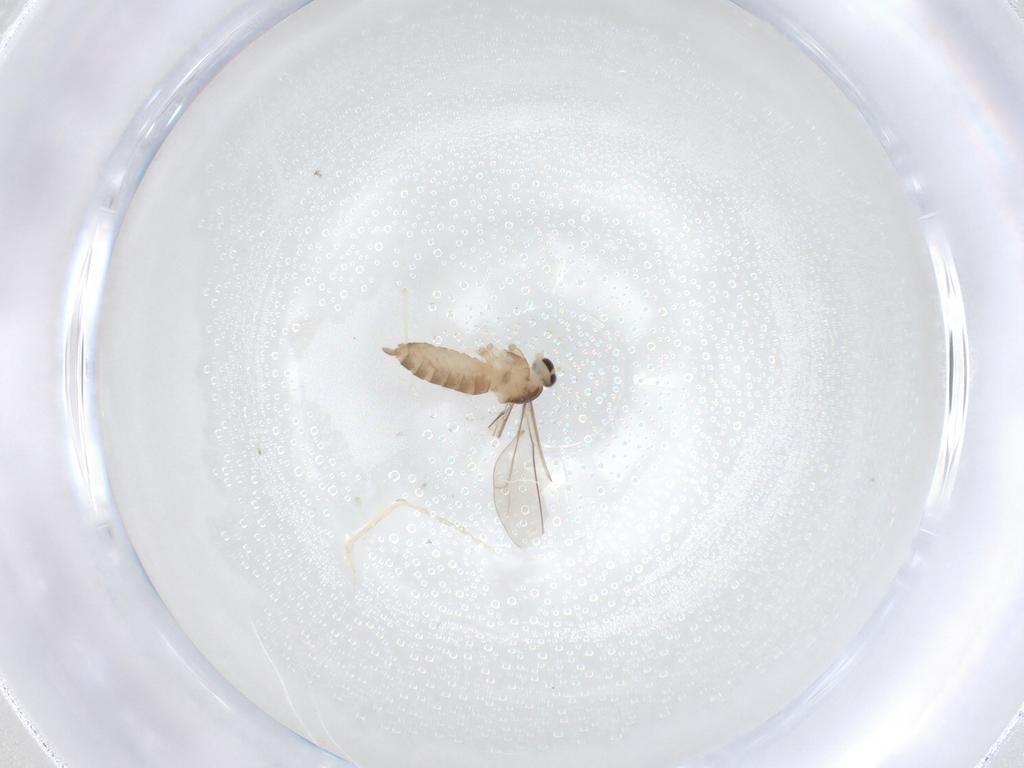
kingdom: Animalia
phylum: Arthropoda
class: Insecta
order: Diptera
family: Cecidomyiidae
